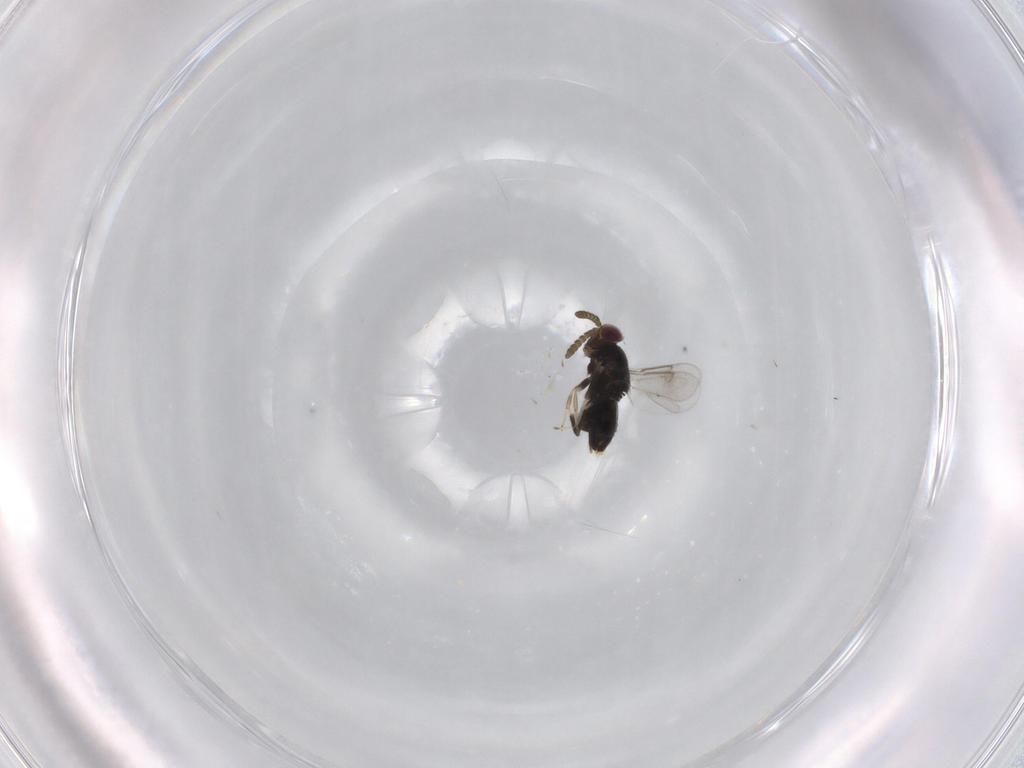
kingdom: Animalia
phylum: Arthropoda
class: Insecta
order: Hymenoptera
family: Aphelinidae
